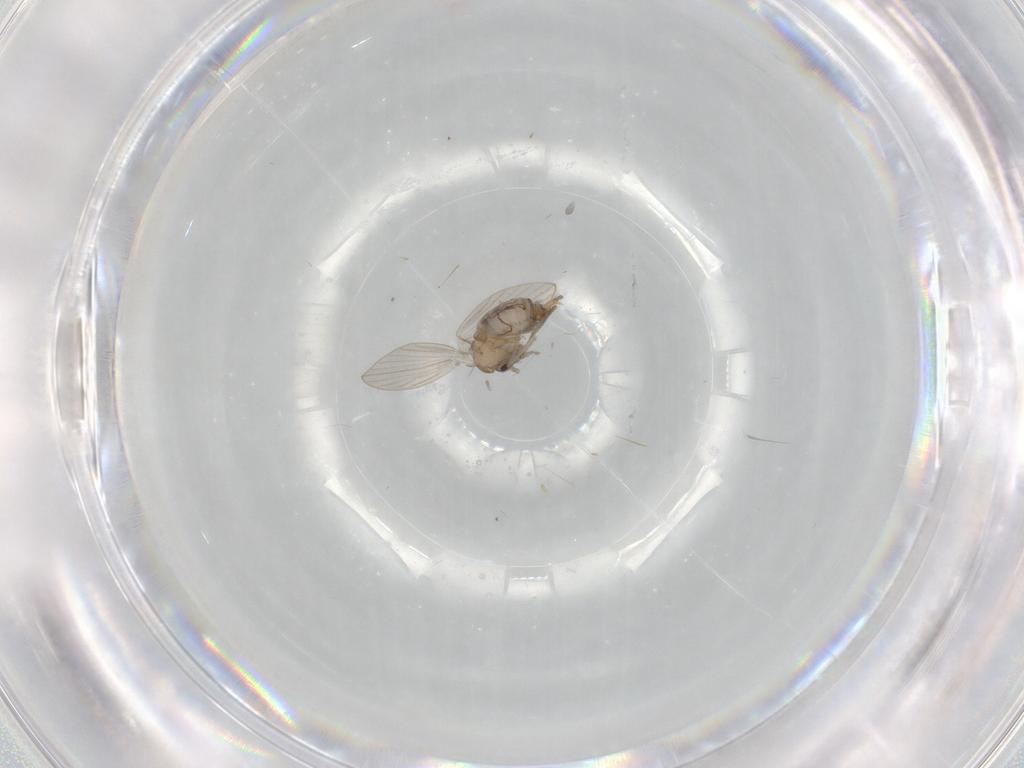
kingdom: Animalia
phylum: Arthropoda
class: Insecta
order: Diptera
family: Psychodidae
